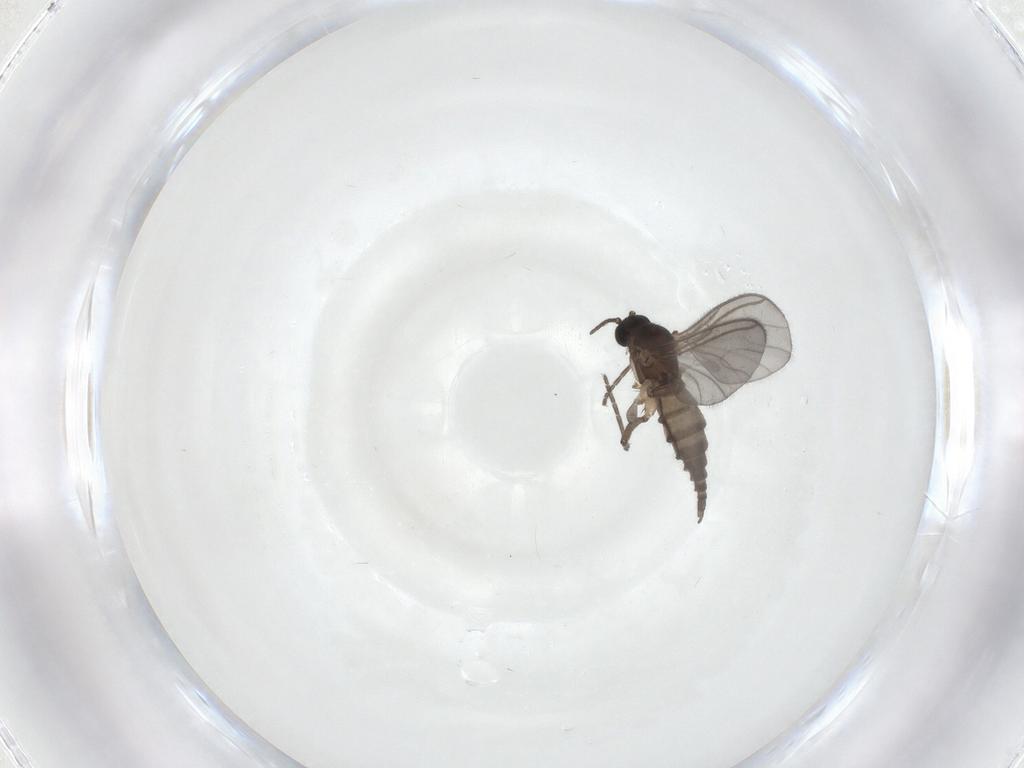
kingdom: Animalia
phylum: Arthropoda
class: Insecta
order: Diptera
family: Sciaridae
